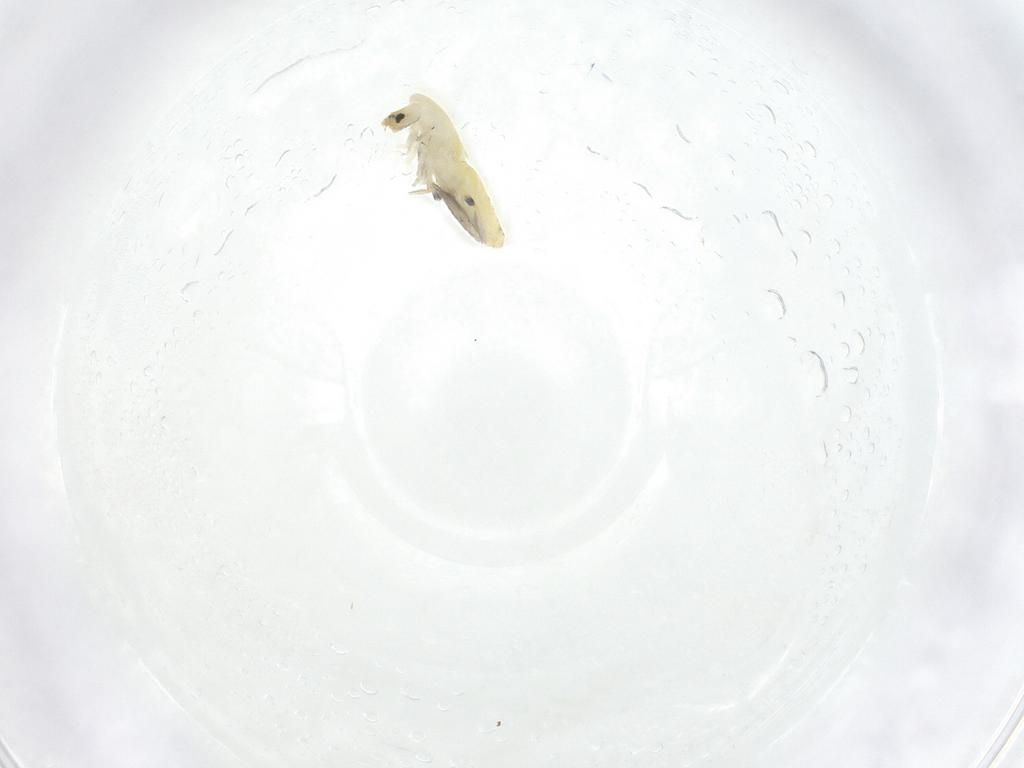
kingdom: Animalia
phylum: Arthropoda
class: Collembola
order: Entomobryomorpha
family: Entomobryidae
